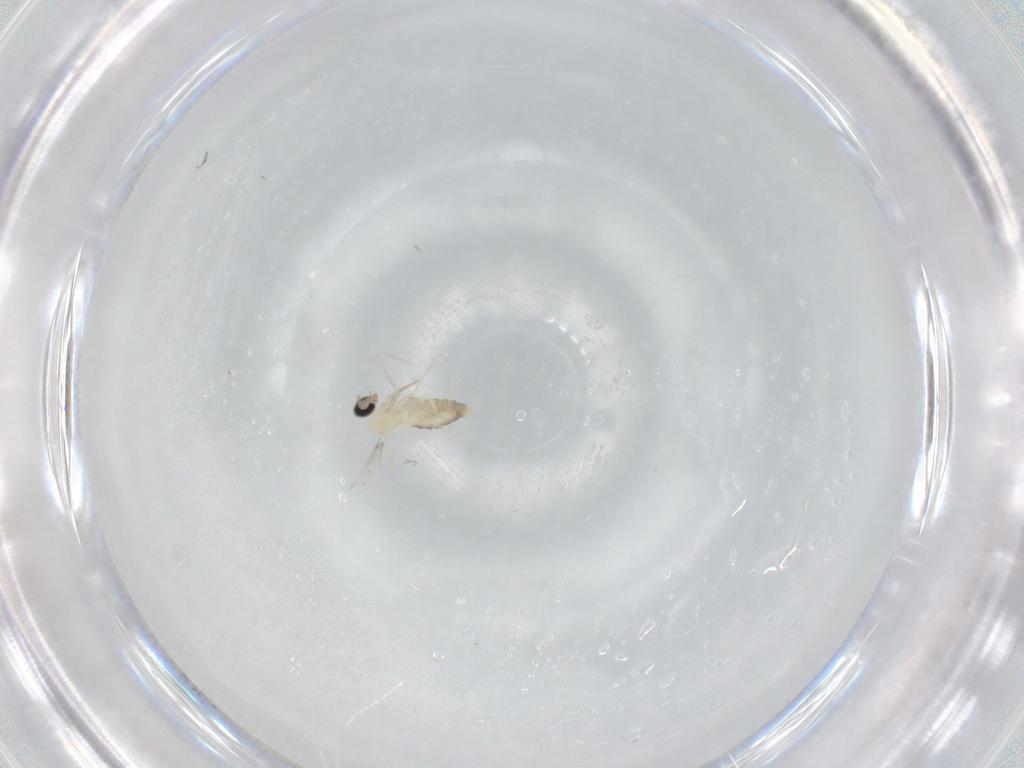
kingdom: Animalia
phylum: Arthropoda
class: Insecta
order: Diptera
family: Cecidomyiidae
